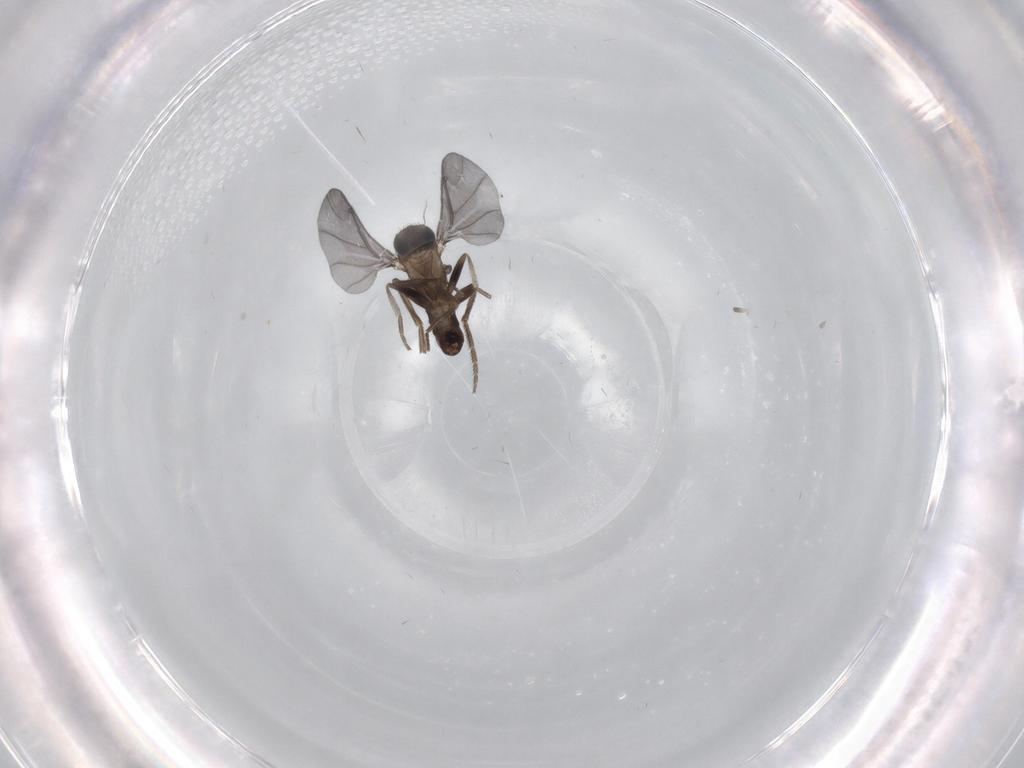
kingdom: Animalia
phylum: Arthropoda
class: Insecta
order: Diptera
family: Phoridae
